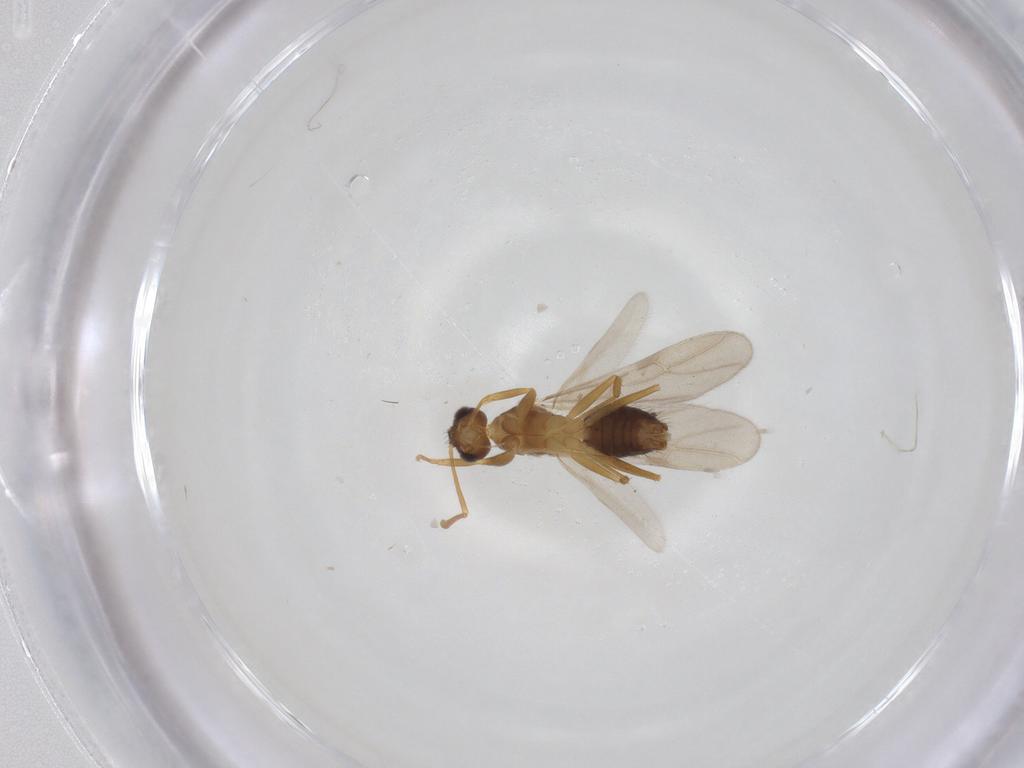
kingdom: Animalia
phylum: Arthropoda
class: Insecta
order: Hymenoptera
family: Formicidae
